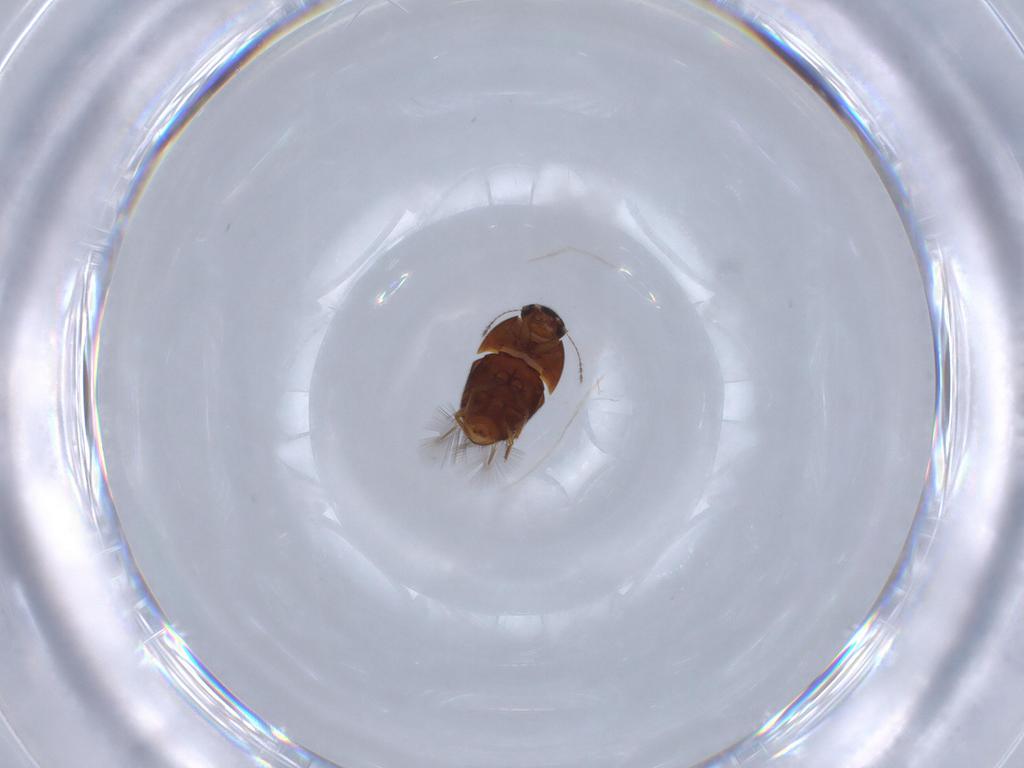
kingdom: Animalia
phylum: Arthropoda
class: Insecta
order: Coleoptera
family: Ptiliidae
